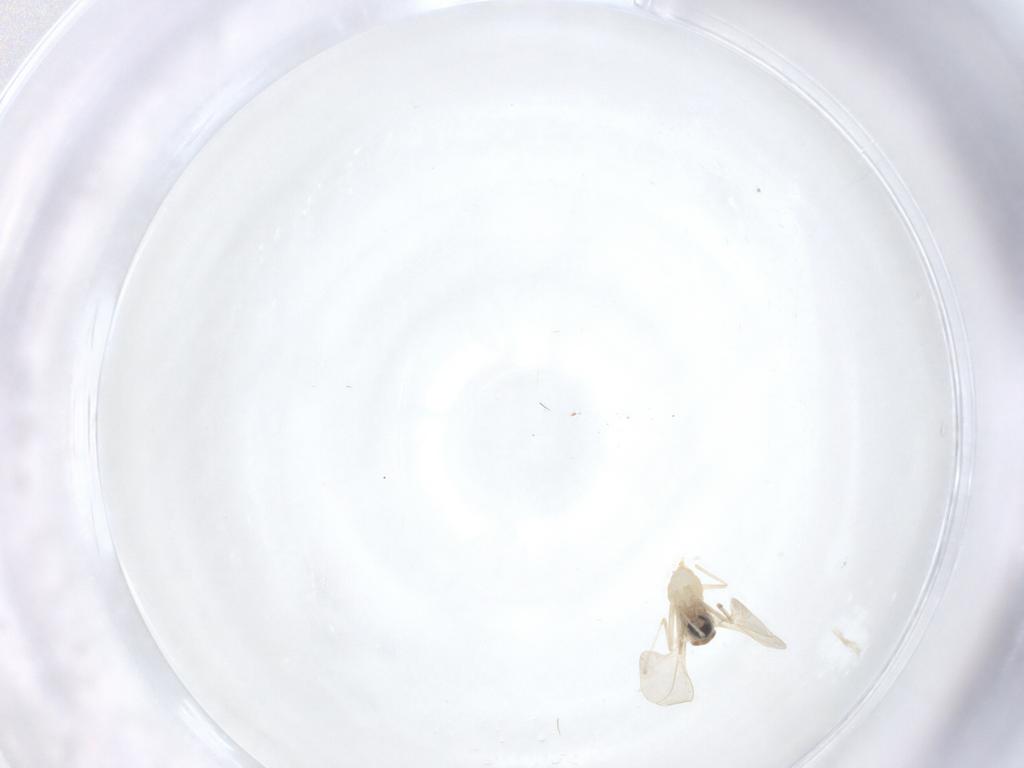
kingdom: Animalia
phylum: Arthropoda
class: Insecta
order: Diptera
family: Cecidomyiidae
